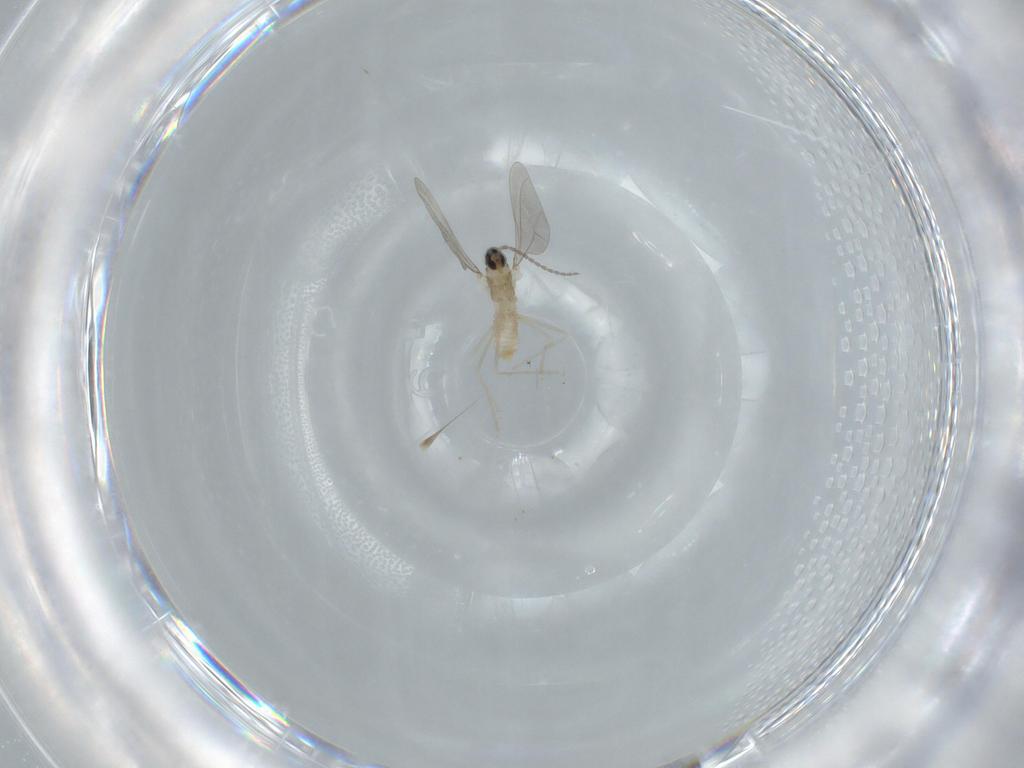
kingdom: Animalia
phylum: Arthropoda
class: Insecta
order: Diptera
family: Cecidomyiidae
